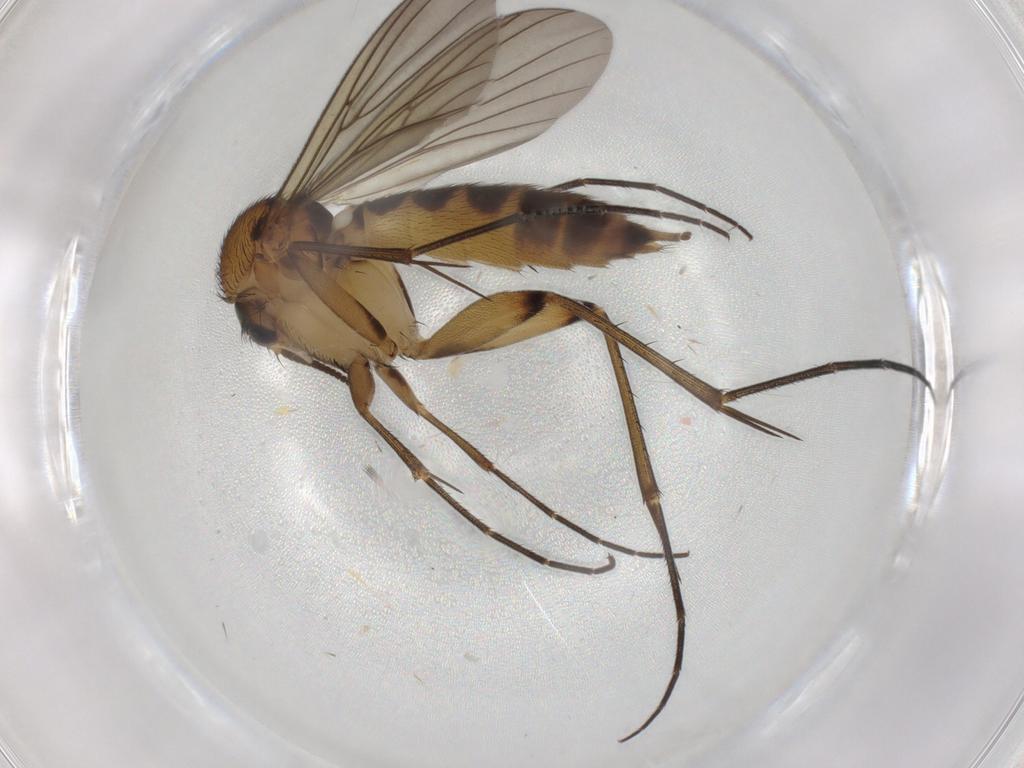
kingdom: Animalia
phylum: Arthropoda
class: Insecta
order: Diptera
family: Mycetophilidae
